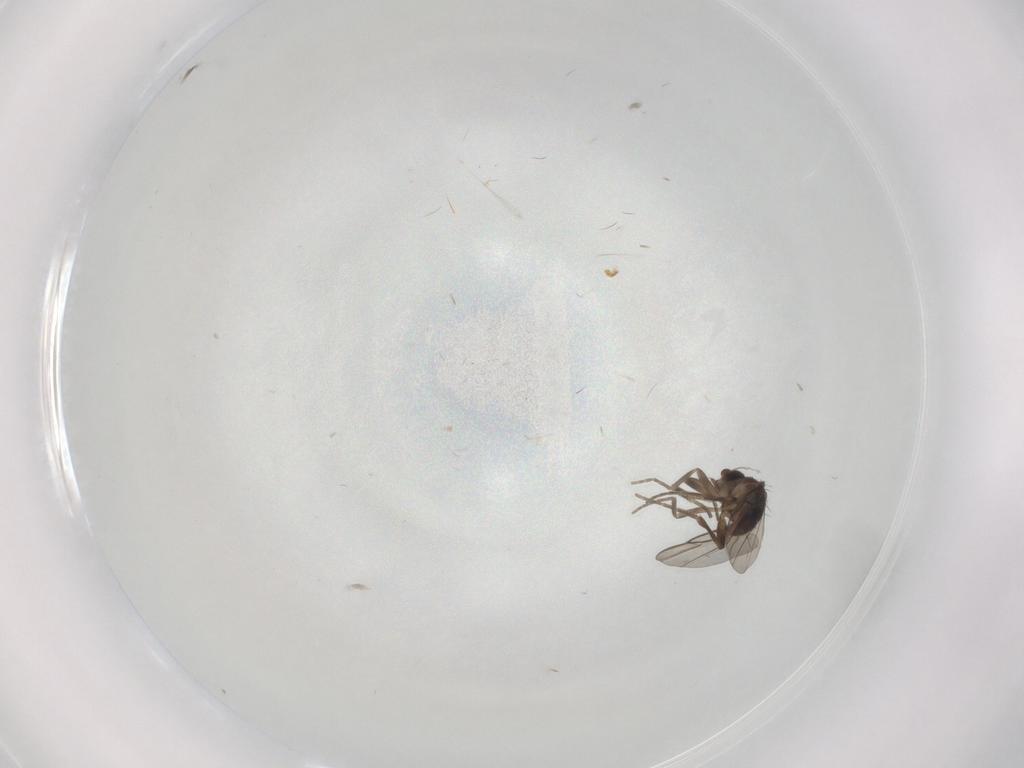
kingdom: Animalia
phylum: Arthropoda
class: Insecta
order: Diptera
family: Phoridae
